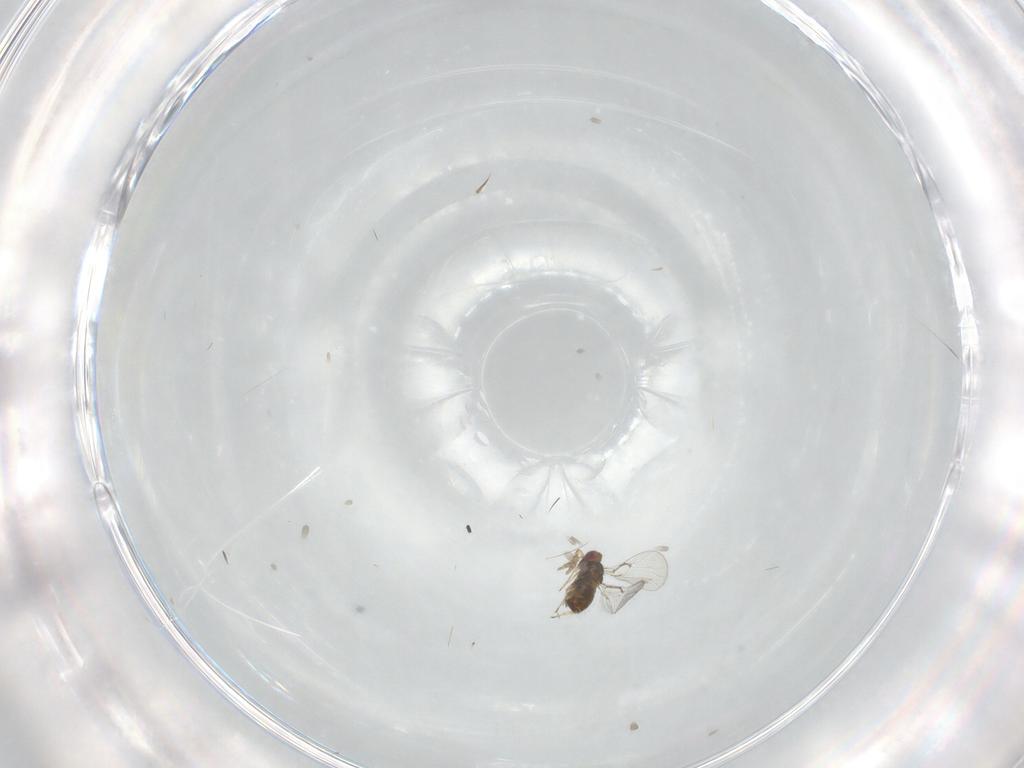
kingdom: Animalia
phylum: Arthropoda
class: Insecta
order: Hymenoptera
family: Trichogrammatidae
